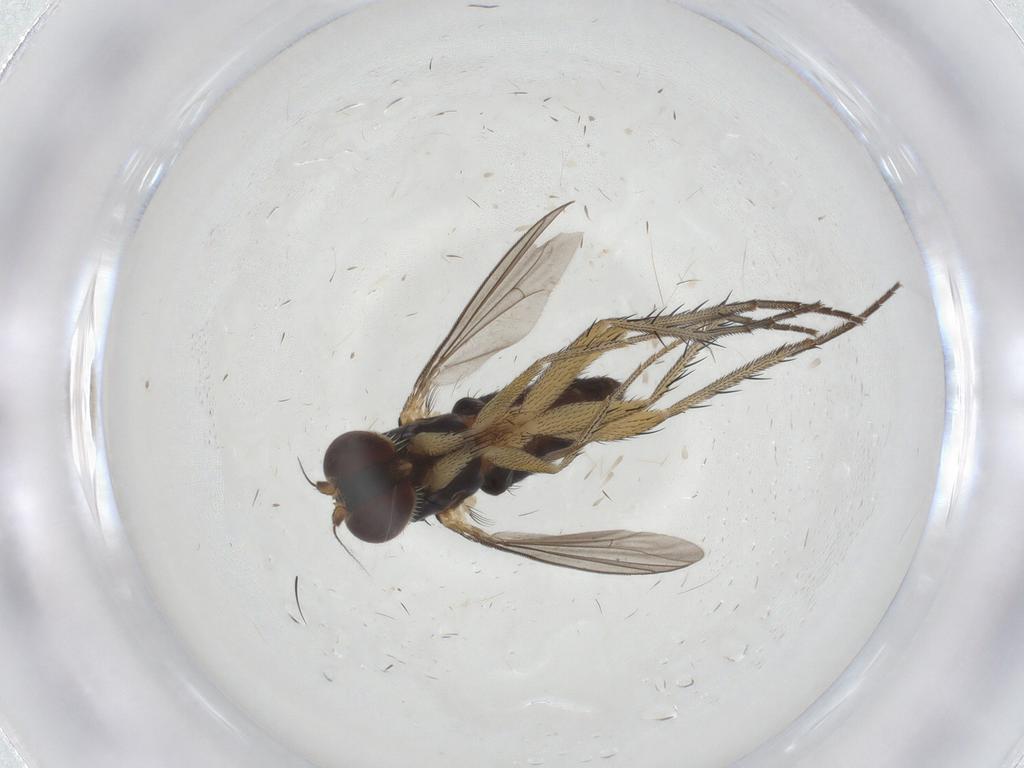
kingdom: Animalia
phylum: Arthropoda
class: Insecta
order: Diptera
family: Dolichopodidae
